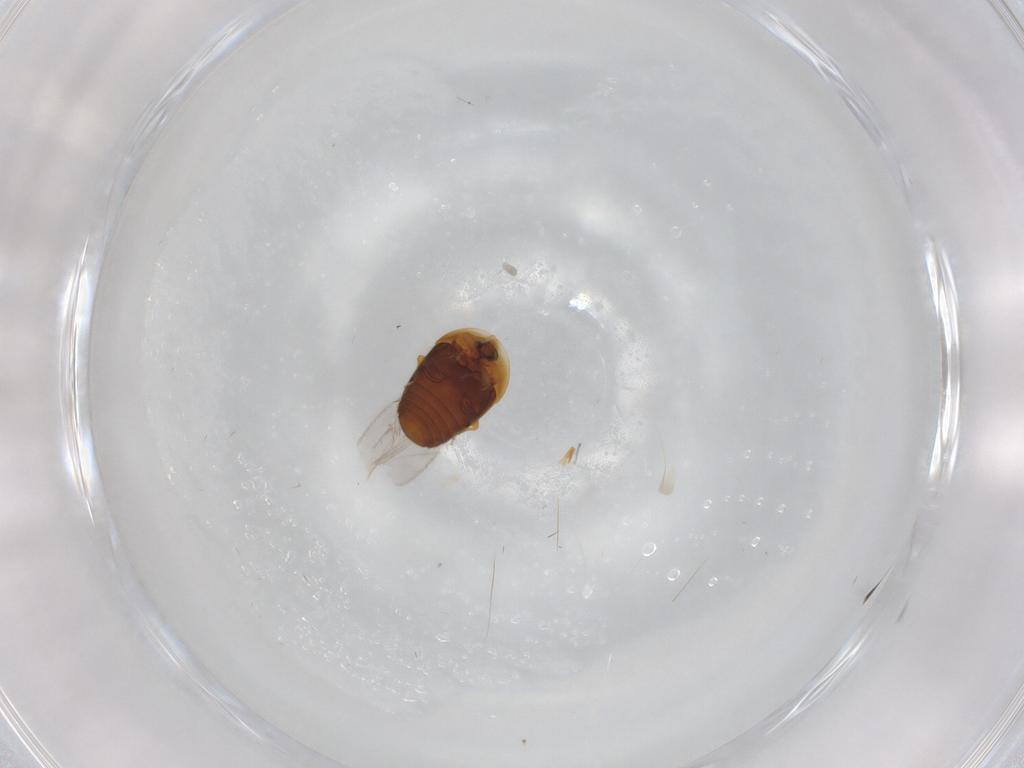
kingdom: Animalia
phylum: Arthropoda
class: Insecta
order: Coleoptera
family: Corylophidae
